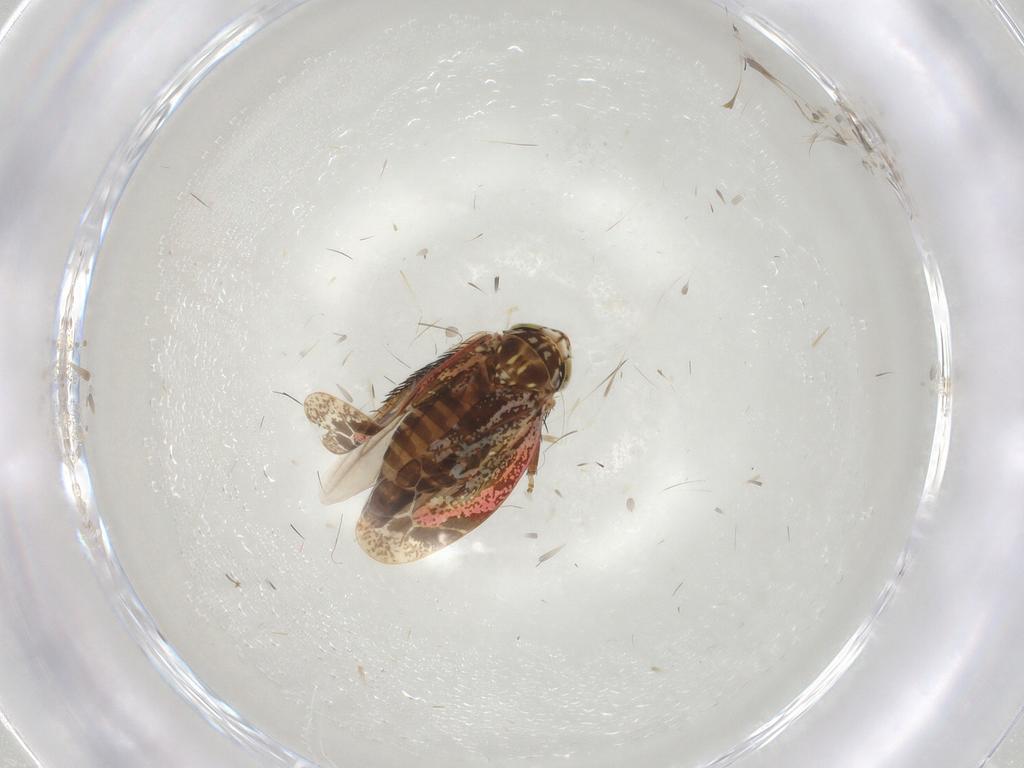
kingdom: Animalia
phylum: Arthropoda
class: Insecta
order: Hemiptera
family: Cicadellidae
